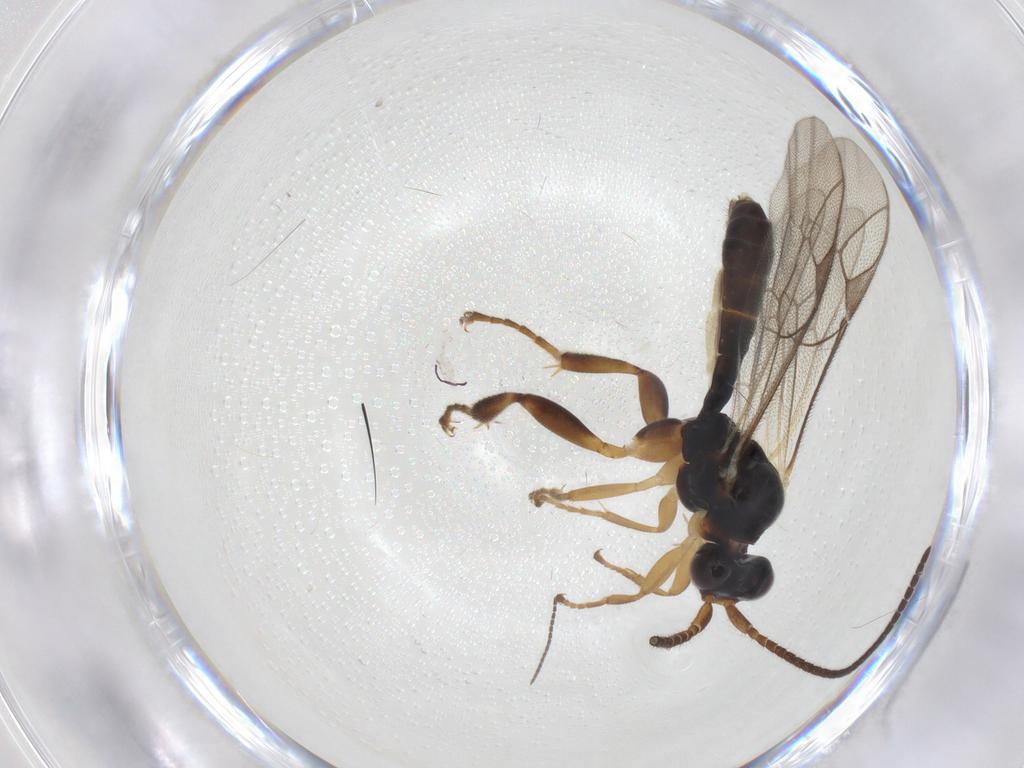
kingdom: Animalia
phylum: Arthropoda
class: Insecta
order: Hymenoptera
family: Ichneumonidae
